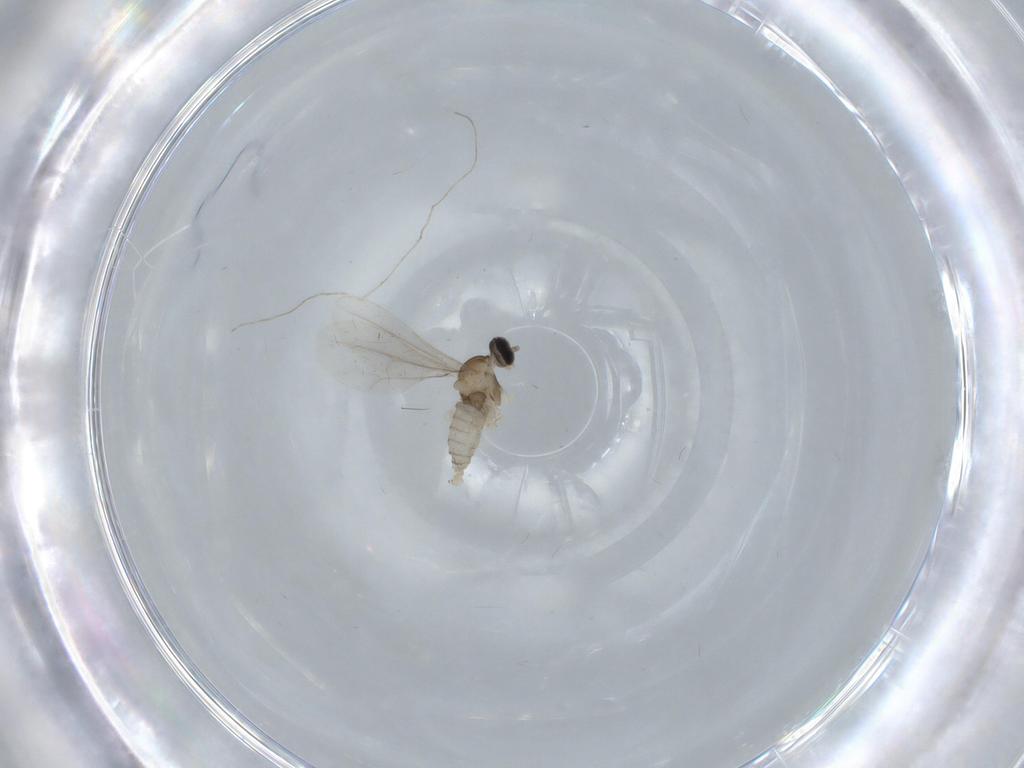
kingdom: Animalia
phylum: Arthropoda
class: Insecta
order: Diptera
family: Cecidomyiidae
